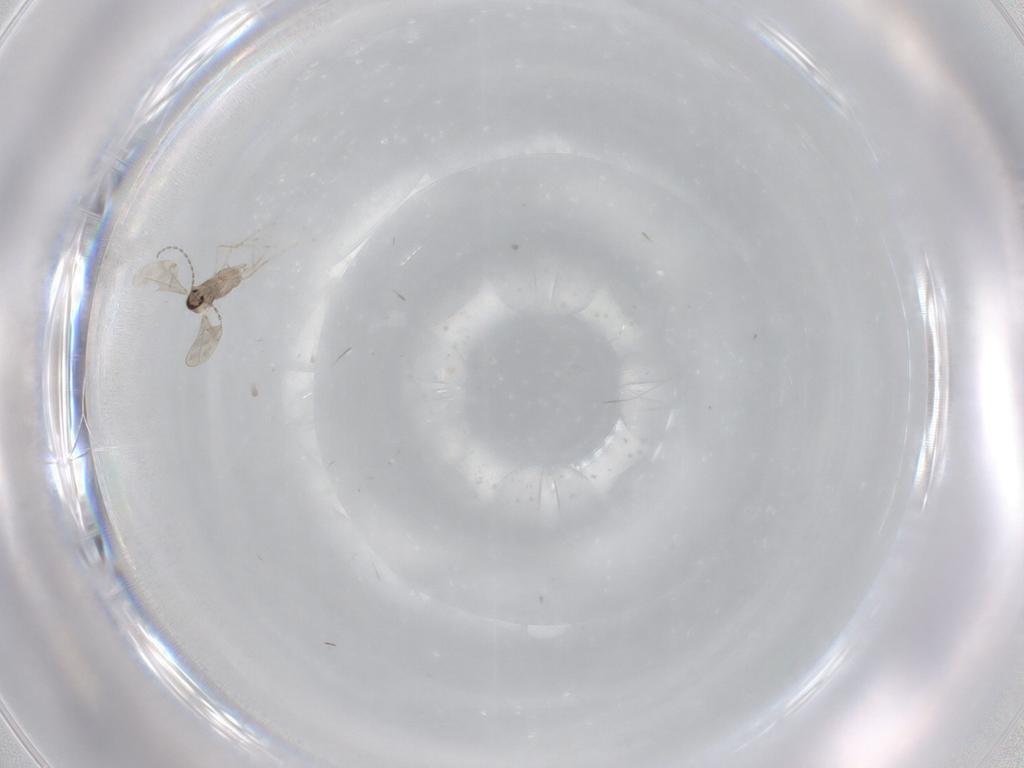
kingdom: Animalia
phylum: Arthropoda
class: Insecta
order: Diptera
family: Cecidomyiidae
